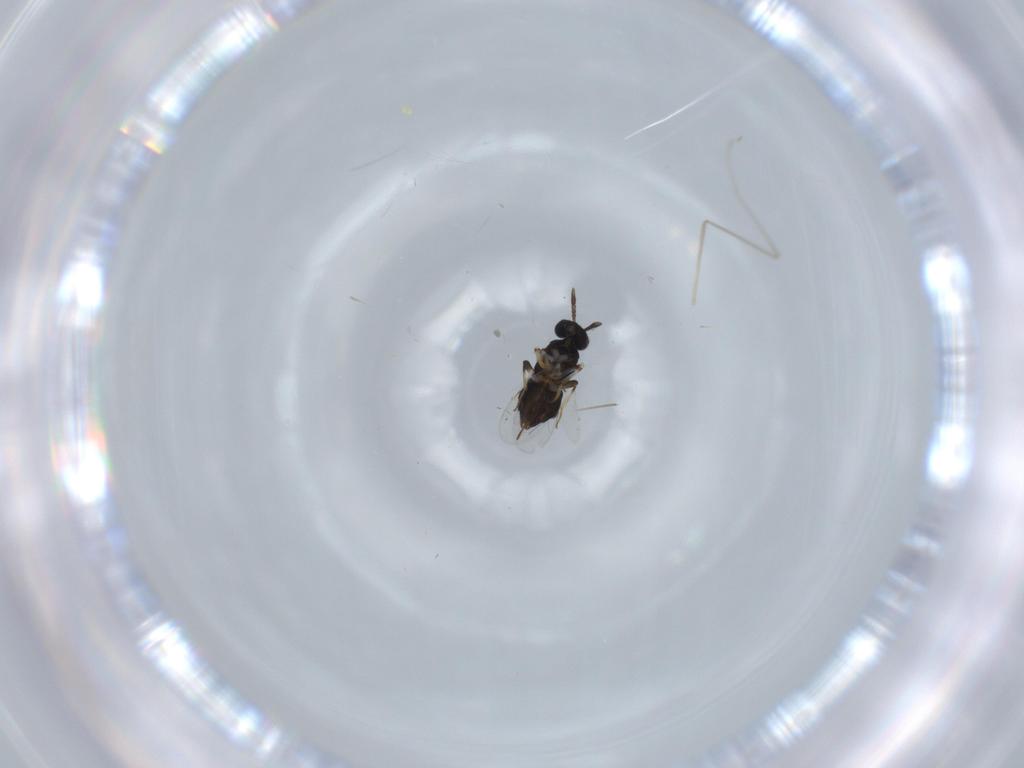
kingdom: Animalia
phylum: Arthropoda
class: Insecta
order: Hymenoptera
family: Encyrtidae
